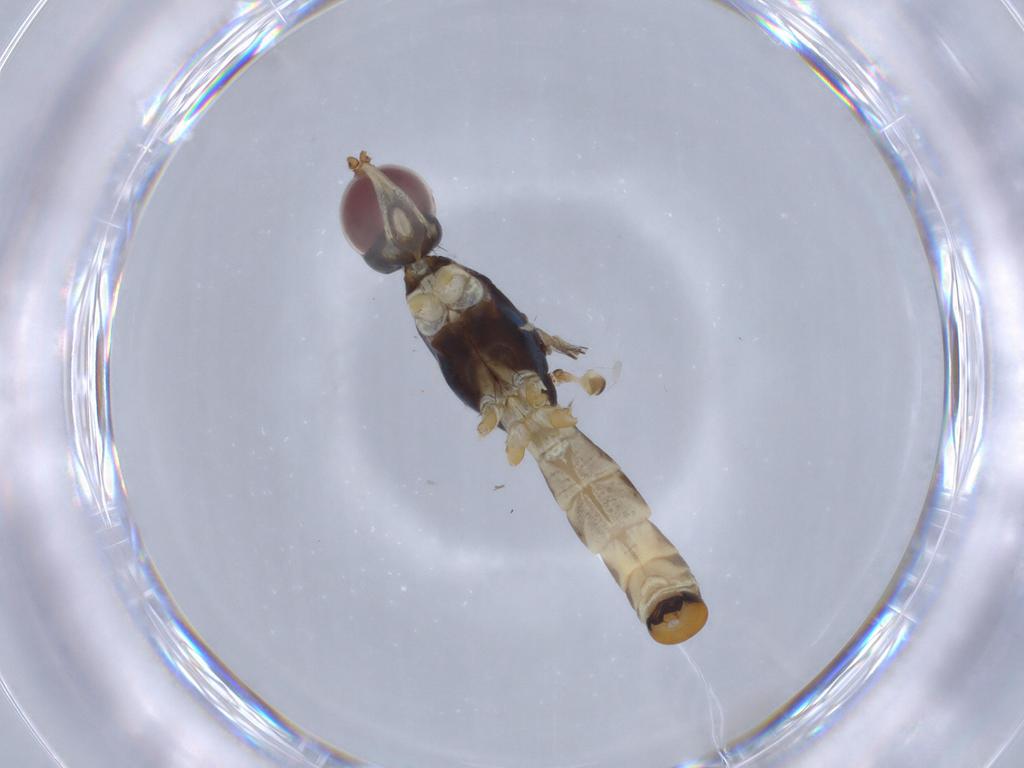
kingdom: Animalia
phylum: Arthropoda
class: Insecta
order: Diptera
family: Micropezidae
